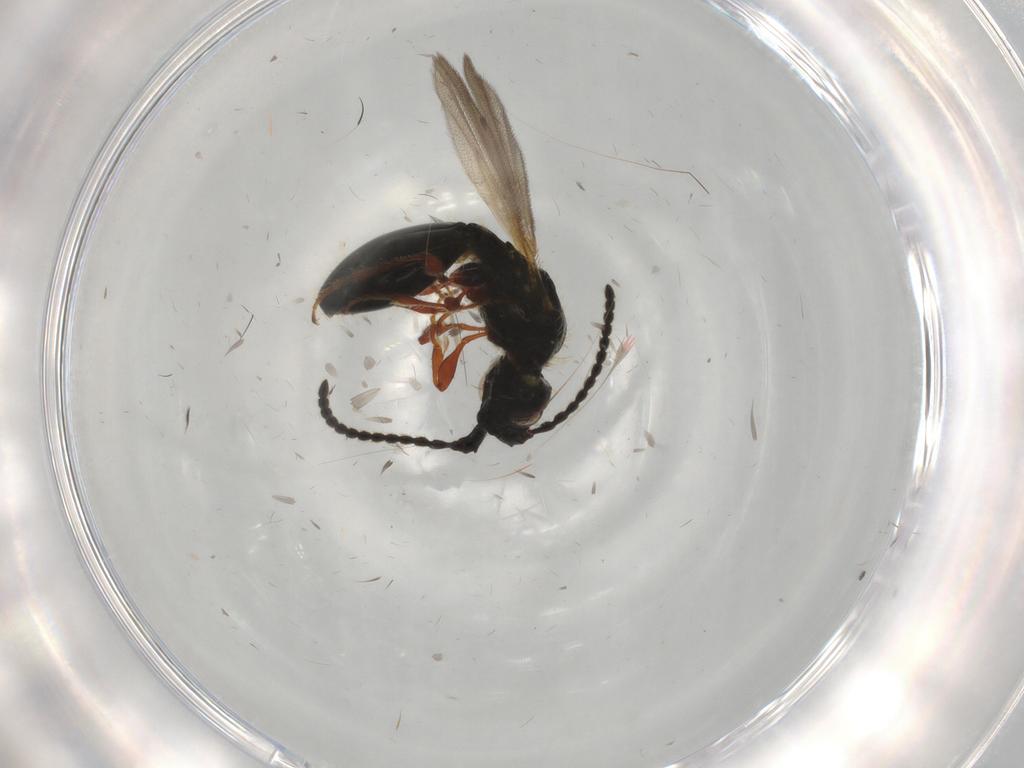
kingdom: Animalia
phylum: Arthropoda
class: Insecta
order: Hymenoptera
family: Diapriidae
